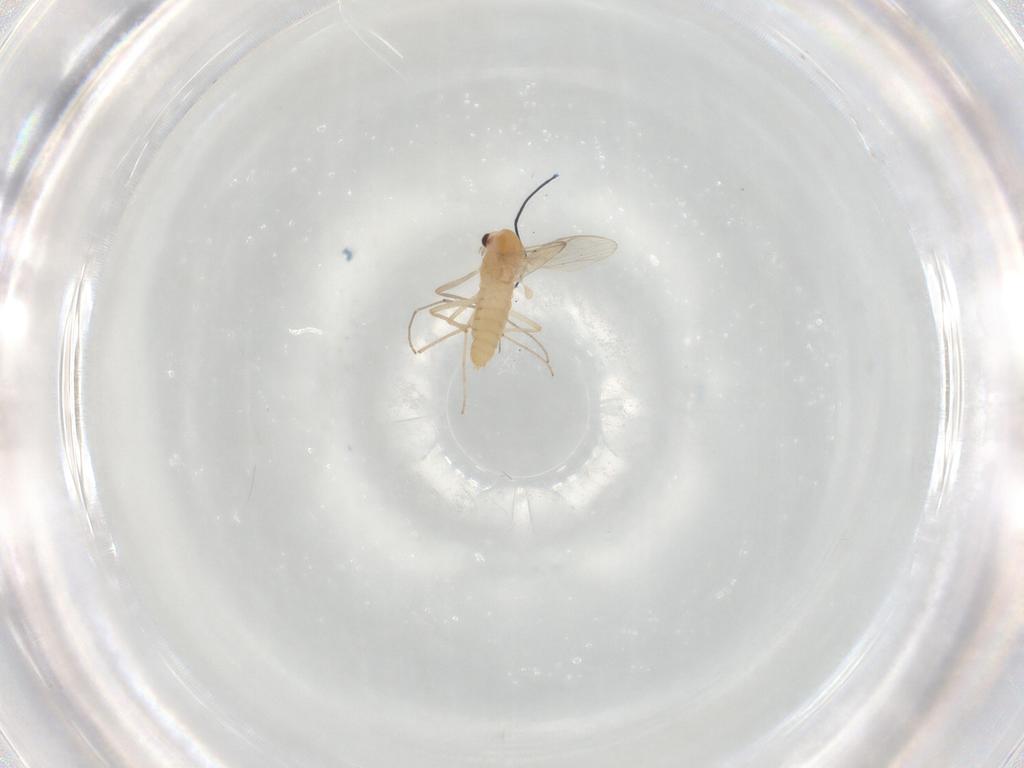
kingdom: Animalia
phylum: Arthropoda
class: Insecta
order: Diptera
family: Chironomidae
